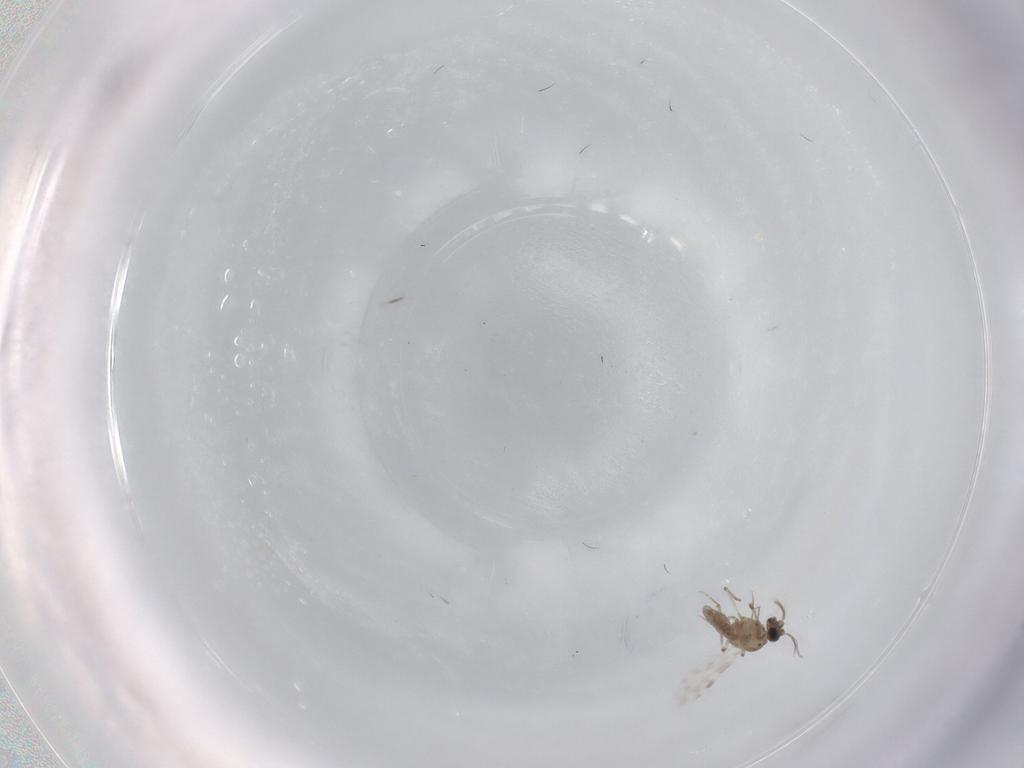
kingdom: Animalia
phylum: Arthropoda
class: Insecta
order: Diptera
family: Ceratopogonidae
